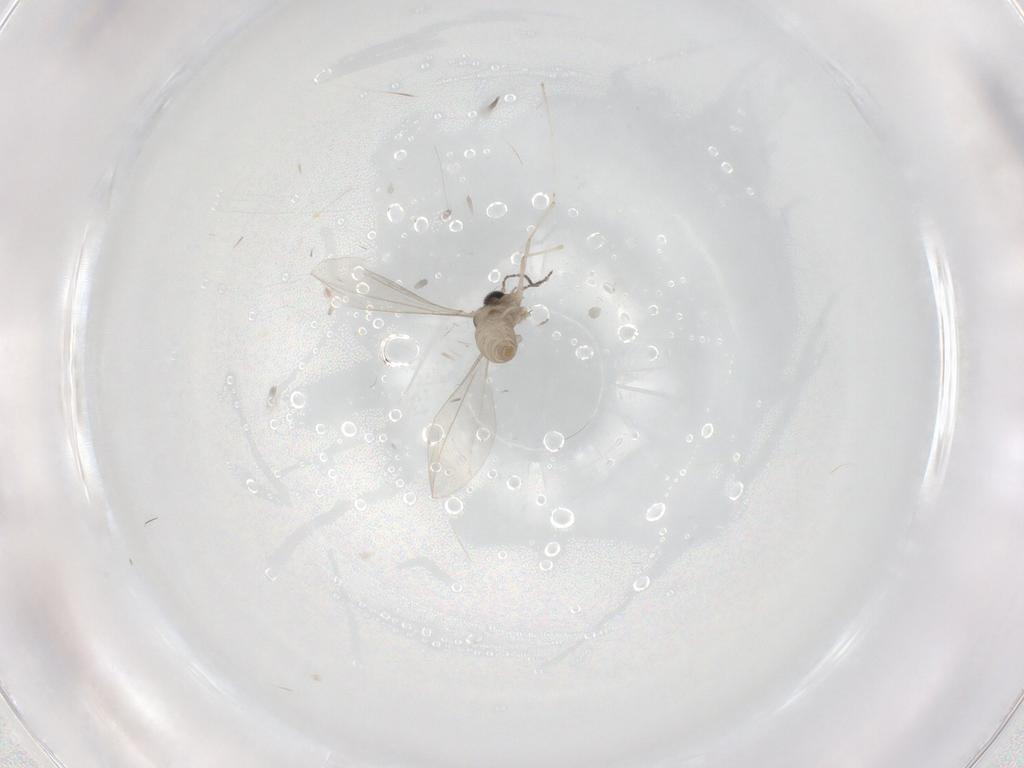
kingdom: Animalia
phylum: Arthropoda
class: Insecta
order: Diptera
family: Cecidomyiidae
